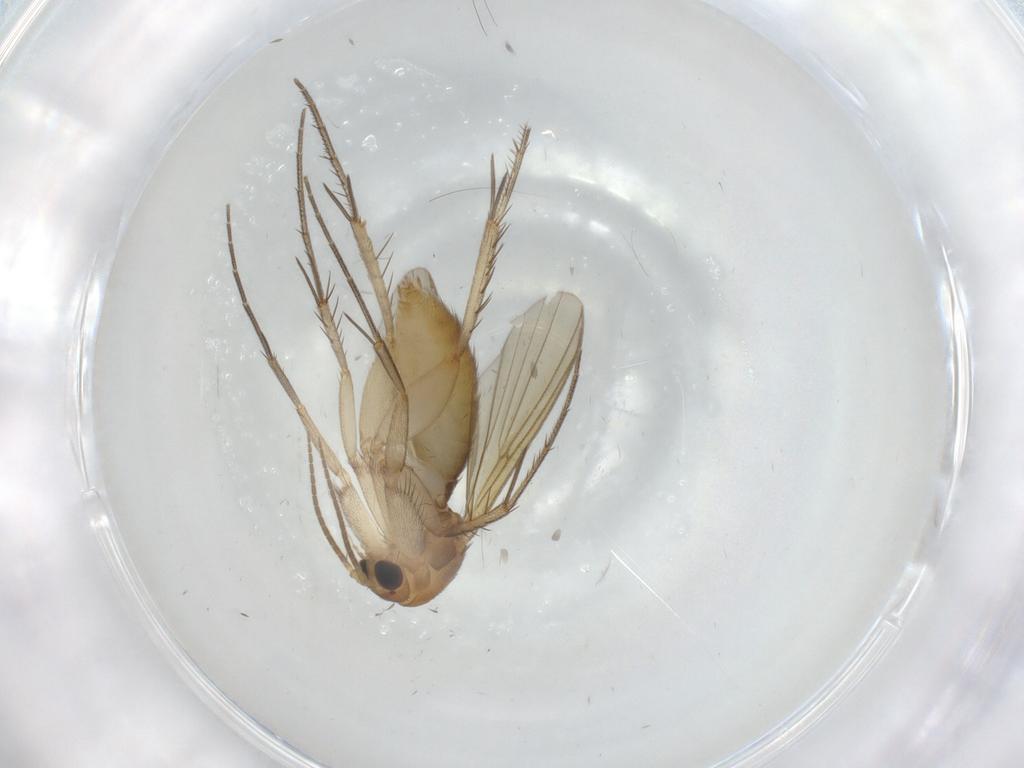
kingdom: Animalia
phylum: Arthropoda
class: Insecta
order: Diptera
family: Mycetophilidae
